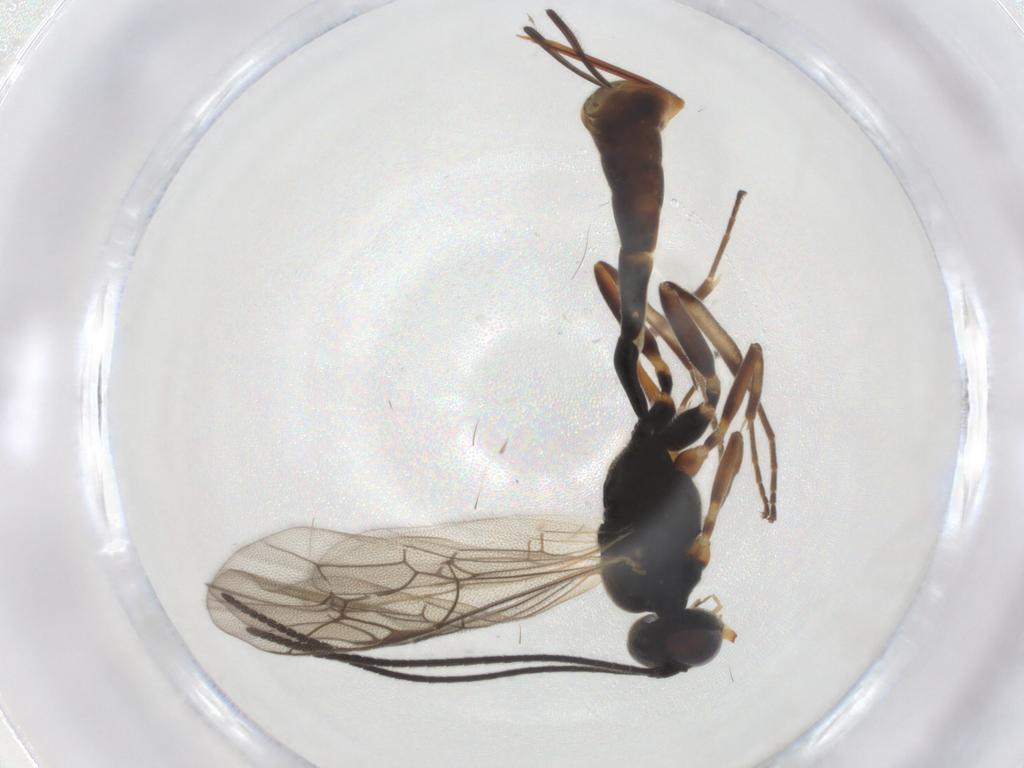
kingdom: Animalia
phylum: Arthropoda
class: Insecta
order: Hymenoptera
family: Ichneumonidae
